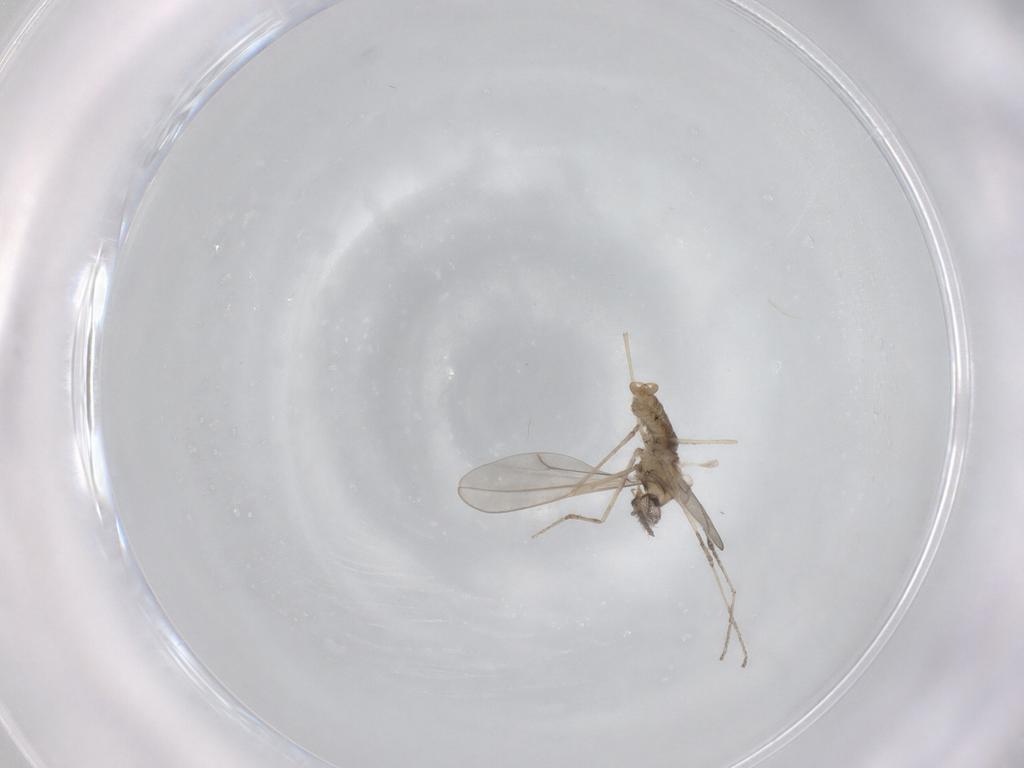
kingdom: Animalia
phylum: Arthropoda
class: Insecta
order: Diptera
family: Cecidomyiidae
